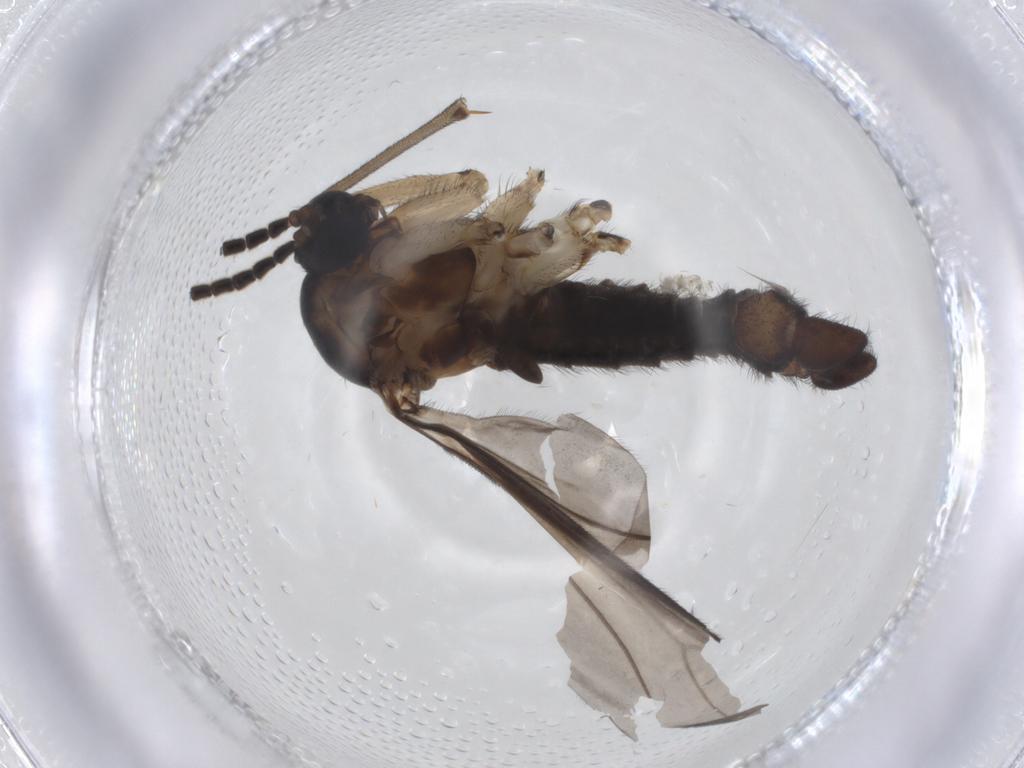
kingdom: Animalia
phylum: Arthropoda
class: Insecta
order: Diptera
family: Sciaridae
